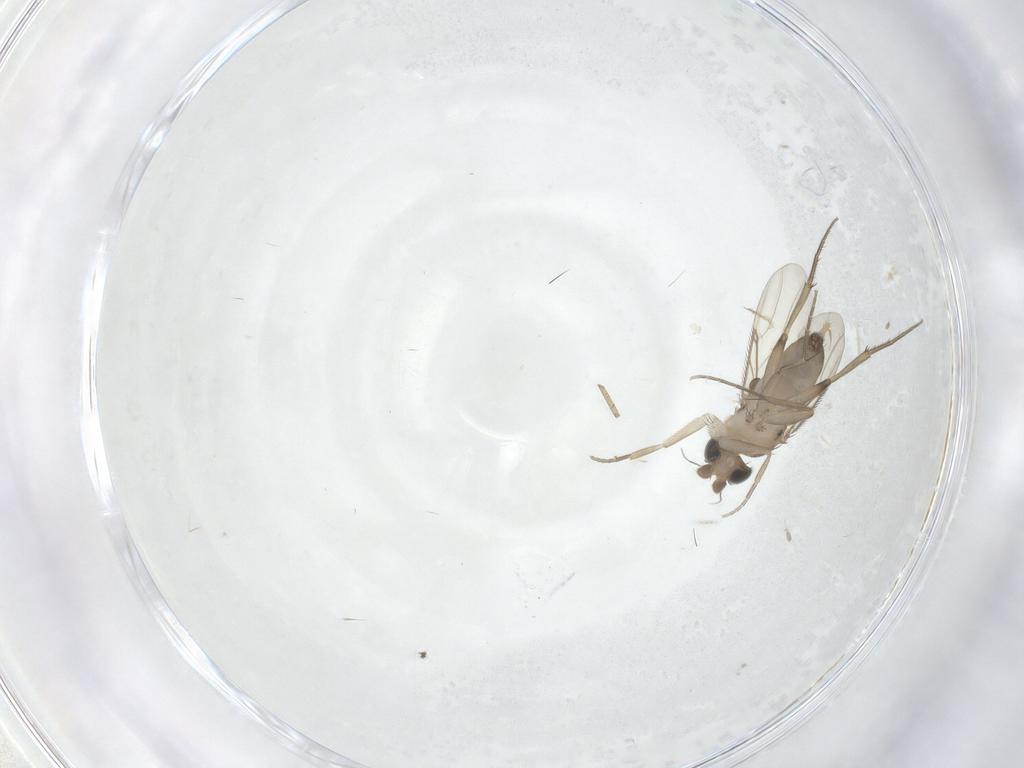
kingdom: Animalia
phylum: Arthropoda
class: Insecta
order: Diptera
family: Phoridae
